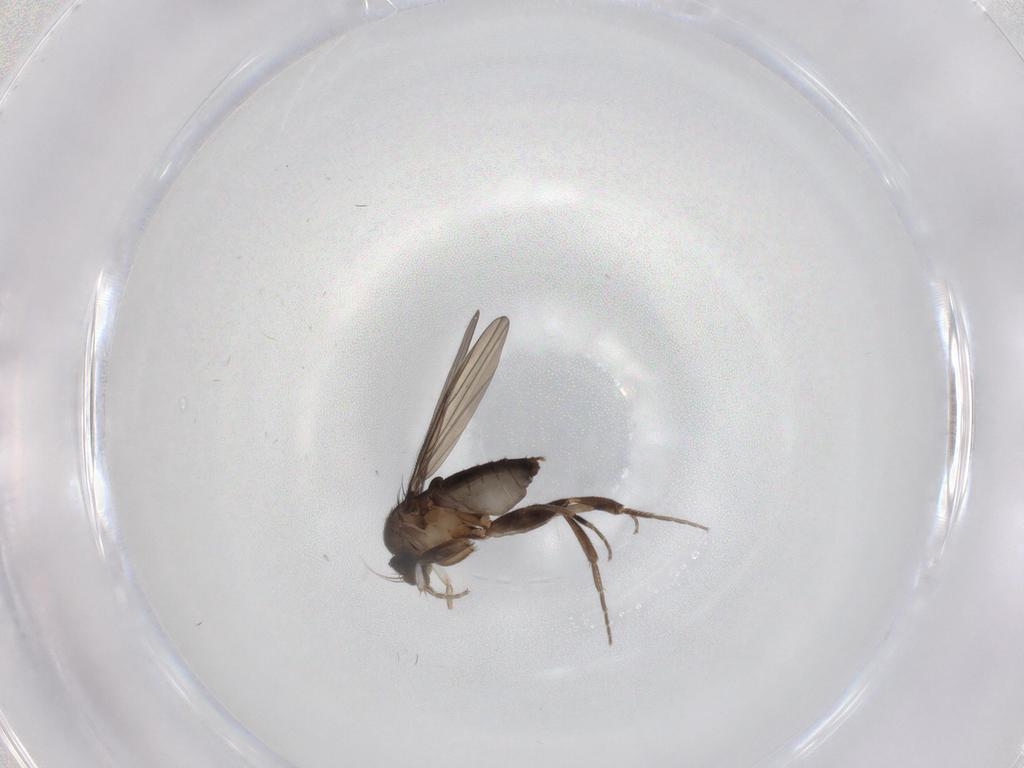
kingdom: Animalia
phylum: Arthropoda
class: Insecta
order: Diptera
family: Phoridae
